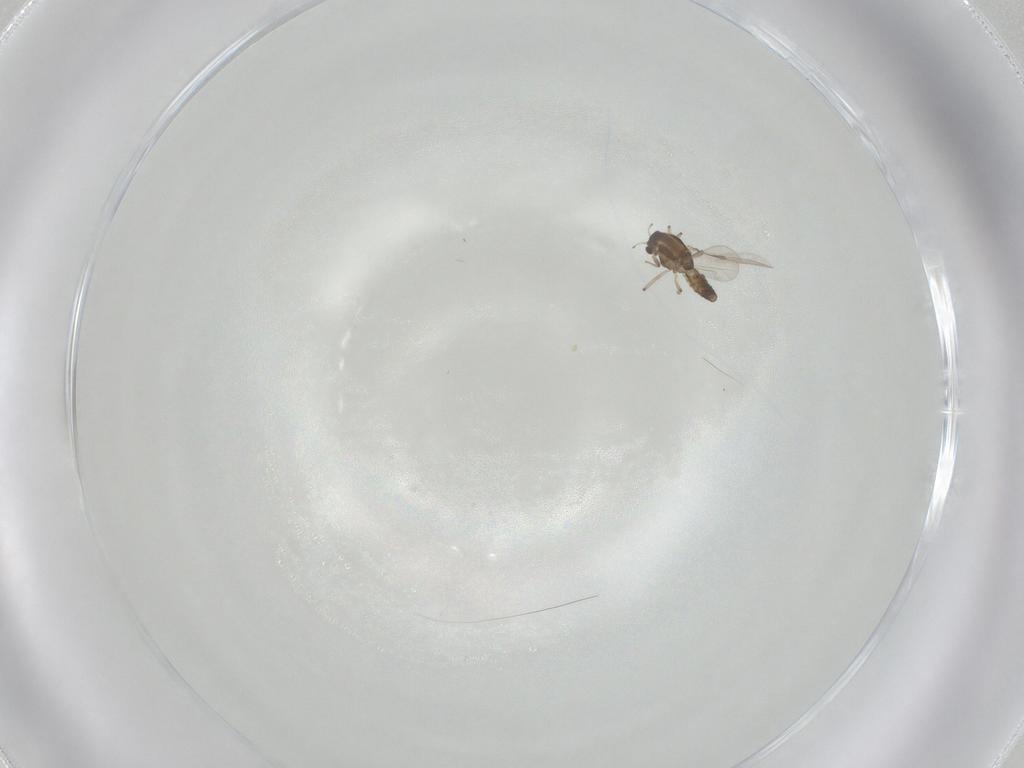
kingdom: Animalia
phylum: Arthropoda
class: Insecta
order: Diptera
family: Chironomidae
